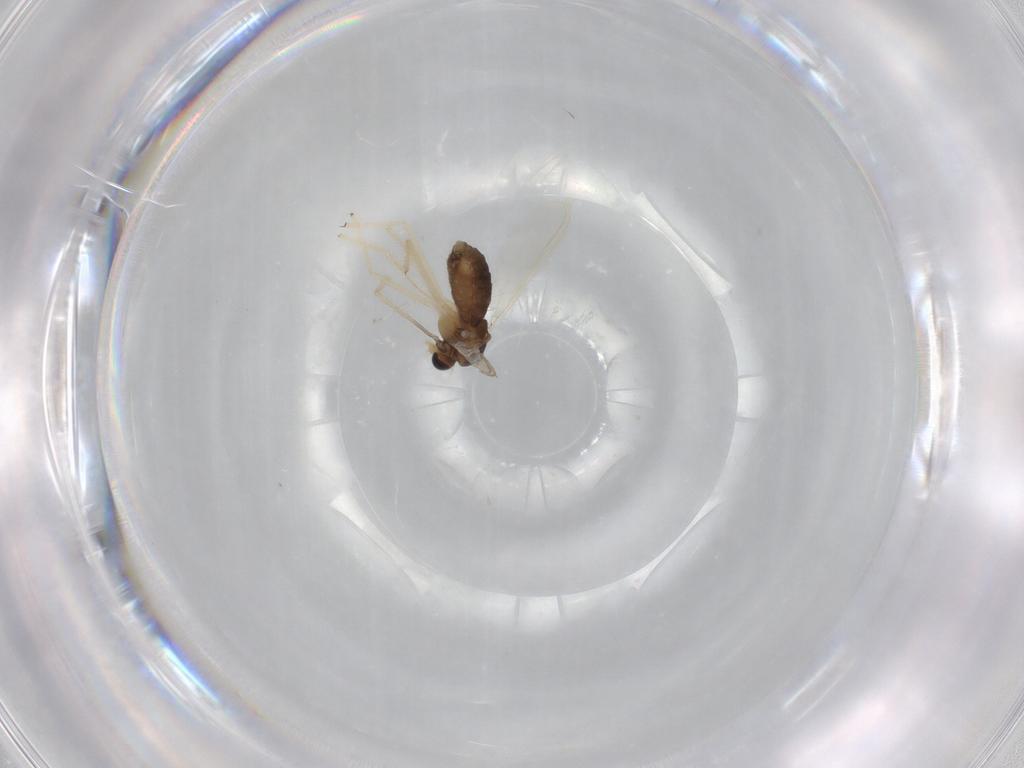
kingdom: Animalia
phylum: Arthropoda
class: Insecta
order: Diptera
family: Chironomidae
